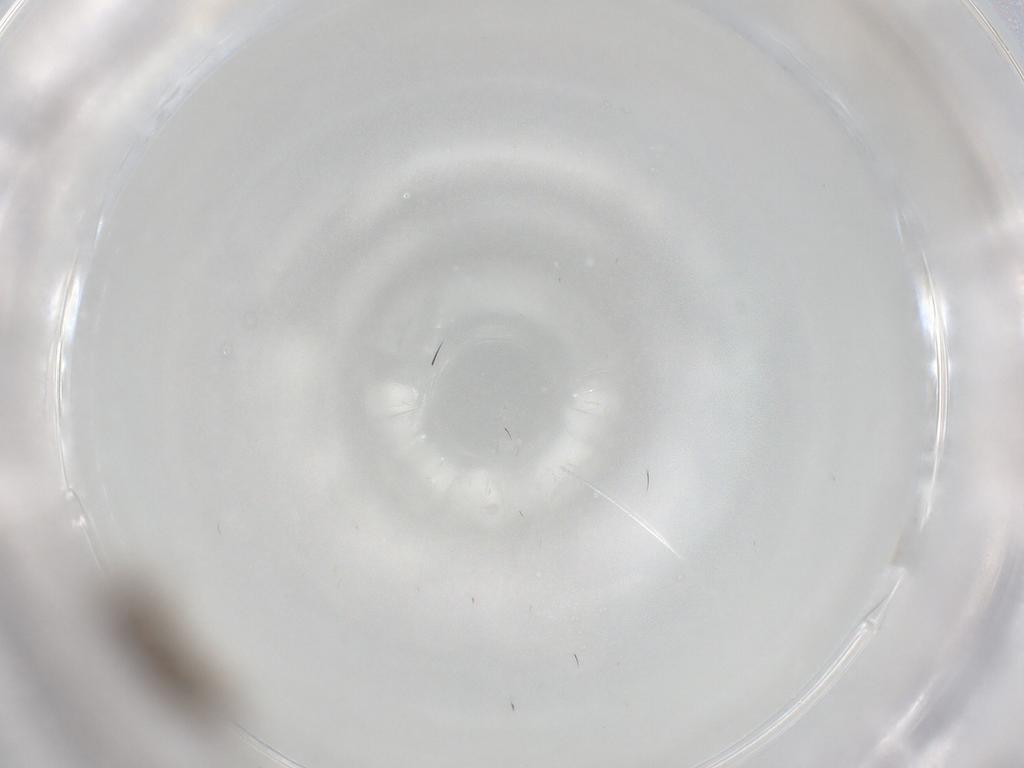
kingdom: Animalia
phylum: Arthropoda
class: Insecta
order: Diptera
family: Chironomidae
